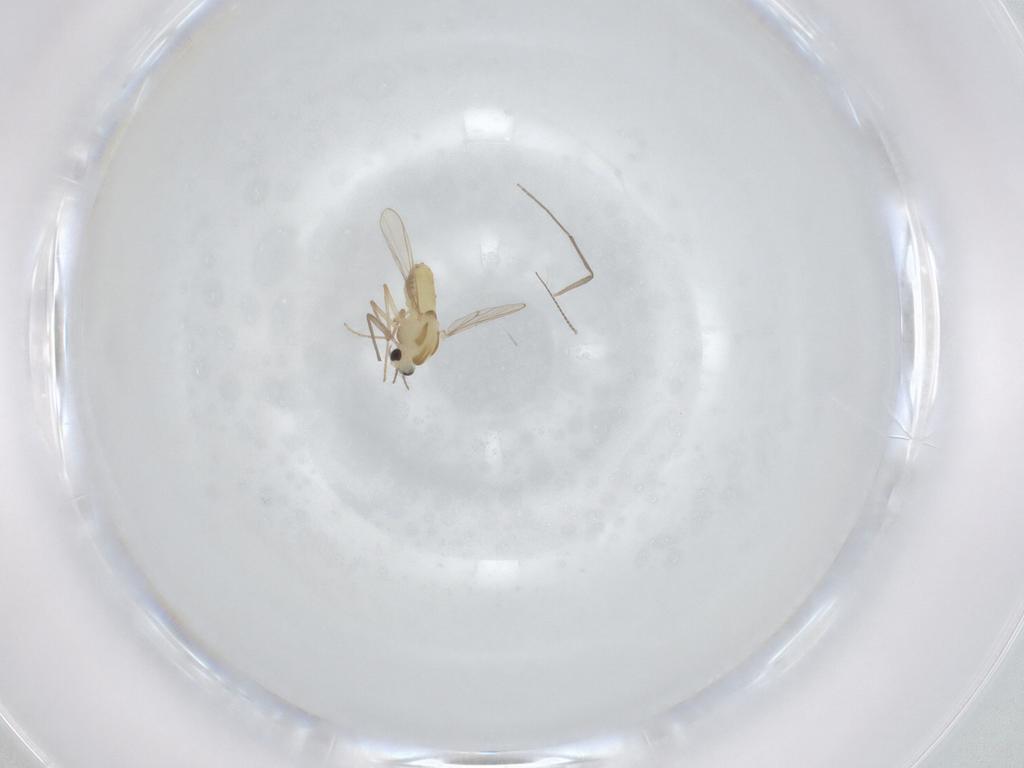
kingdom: Animalia
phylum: Arthropoda
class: Insecta
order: Diptera
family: Chironomidae
